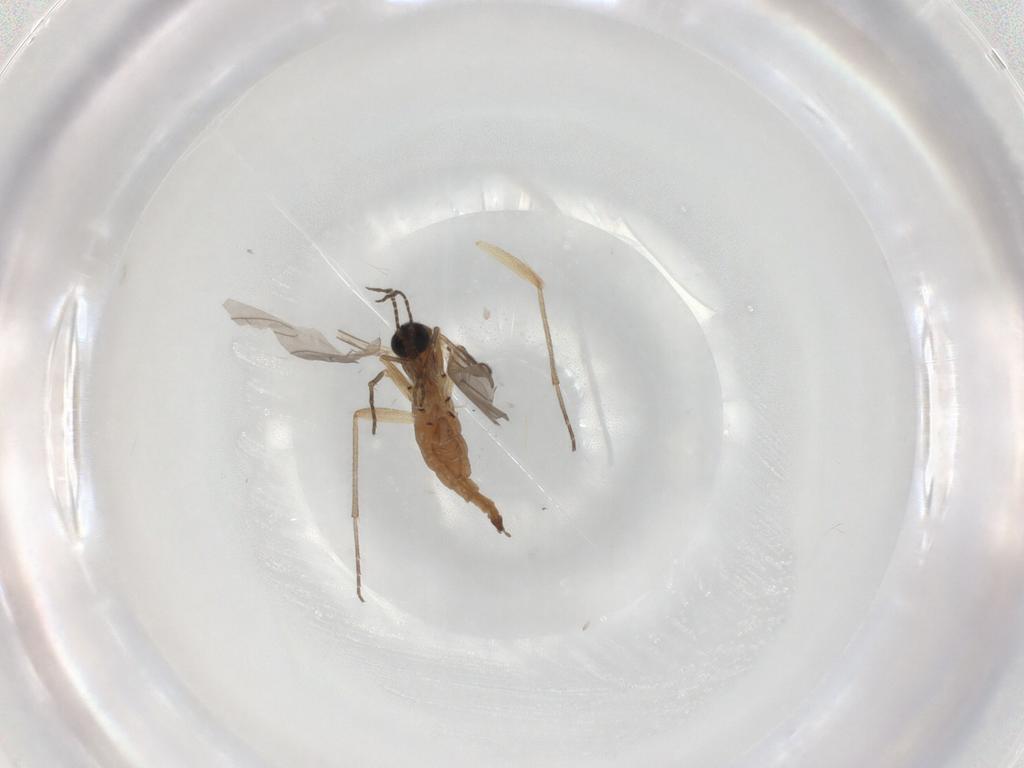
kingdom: Animalia
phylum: Arthropoda
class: Insecta
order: Diptera
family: Sciaridae
